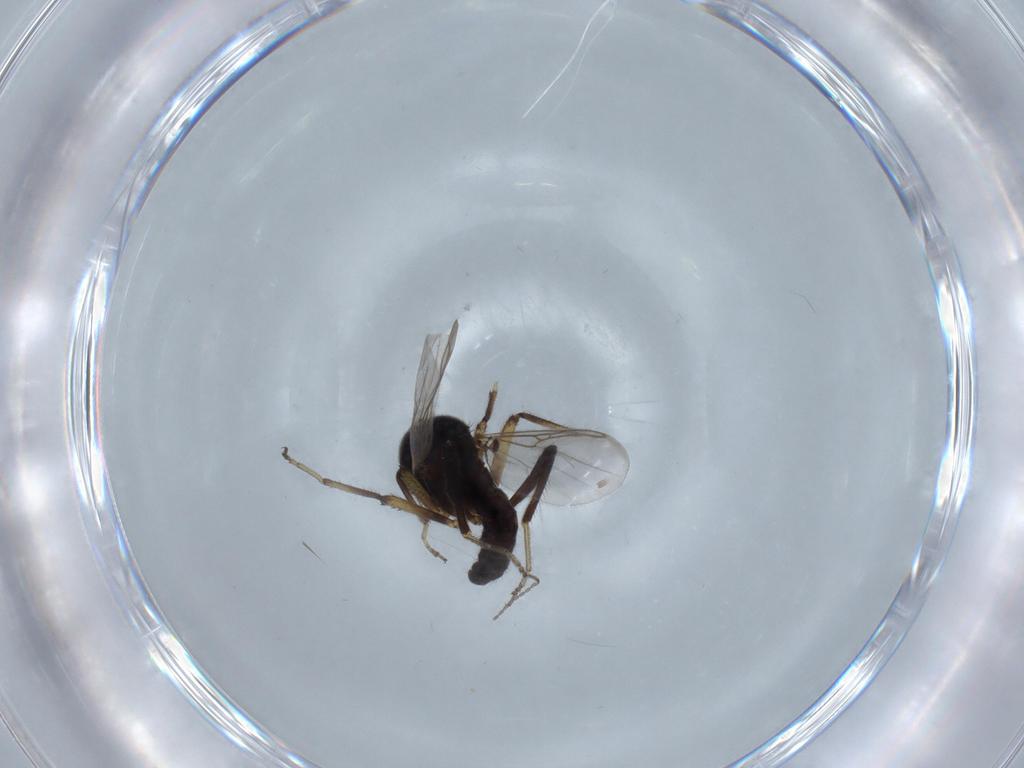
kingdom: Animalia
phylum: Arthropoda
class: Insecta
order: Diptera
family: Ceratopogonidae
